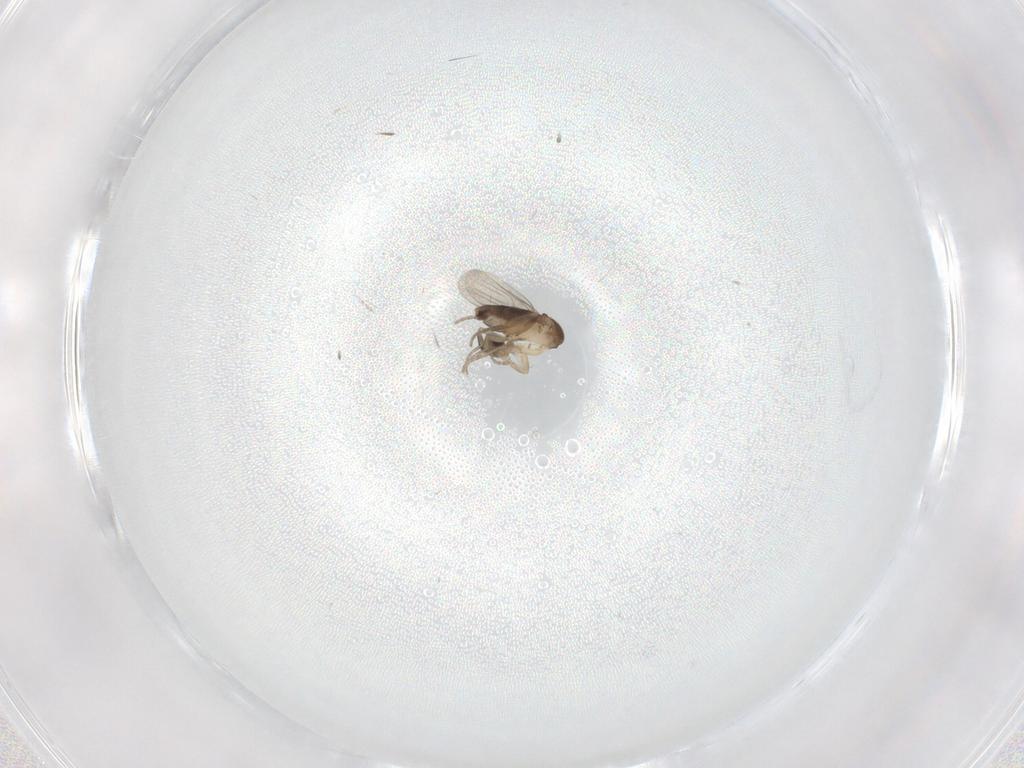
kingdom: Animalia
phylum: Arthropoda
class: Insecta
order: Diptera
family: Phoridae
